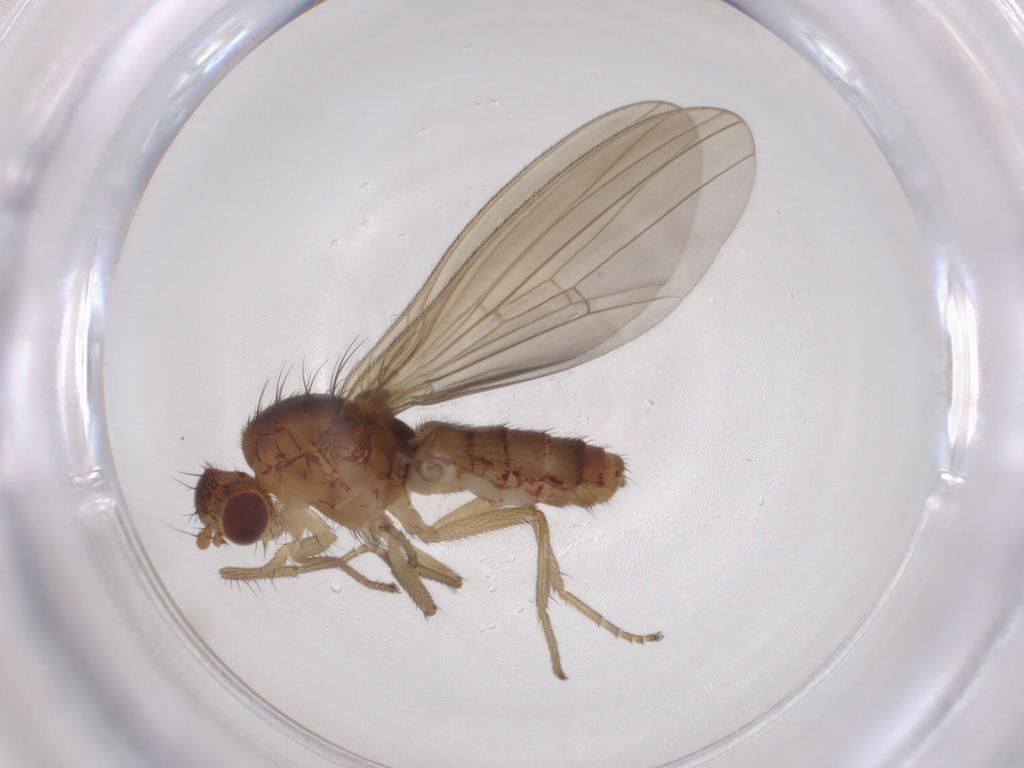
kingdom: Animalia
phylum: Arthropoda
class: Insecta
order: Diptera
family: Natalimyzidae
